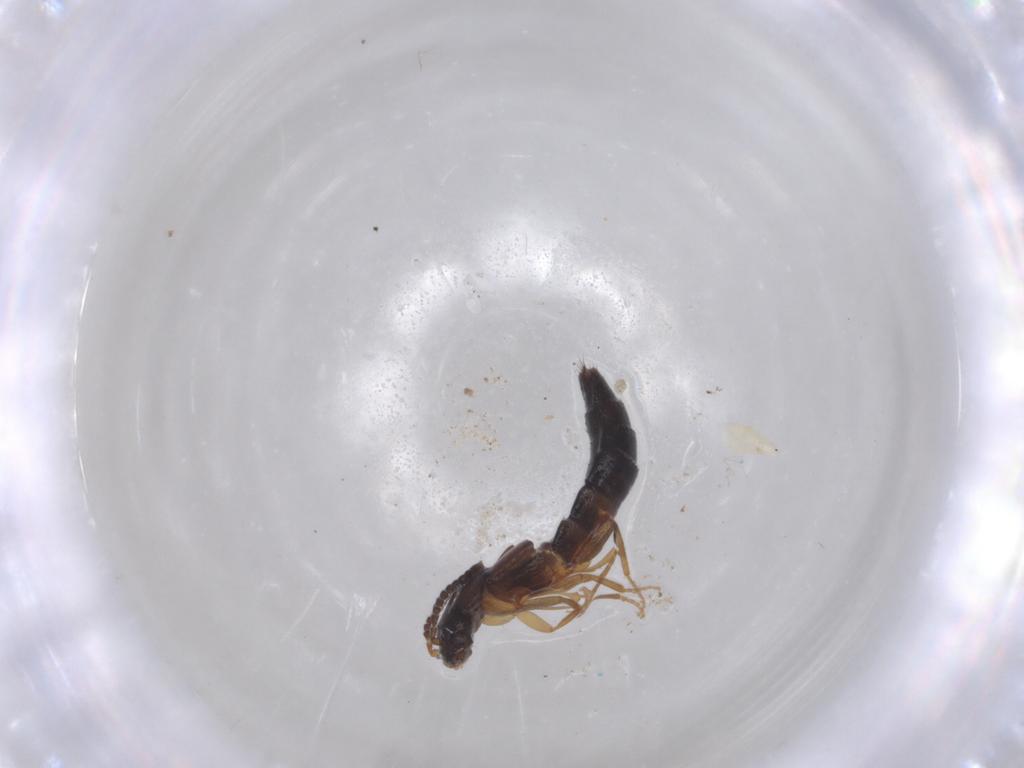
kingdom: Animalia
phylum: Arthropoda
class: Insecta
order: Coleoptera
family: Staphylinidae
